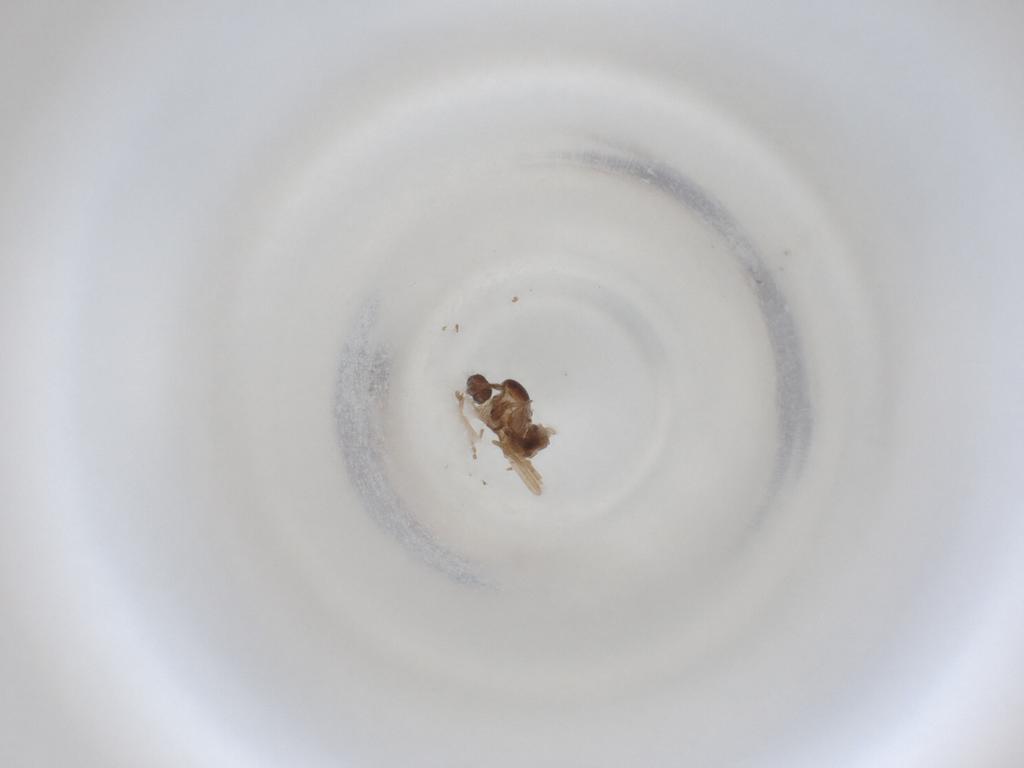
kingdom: Animalia
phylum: Arthropoda
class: Insecta
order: Diptera
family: Cecidomyiidae
